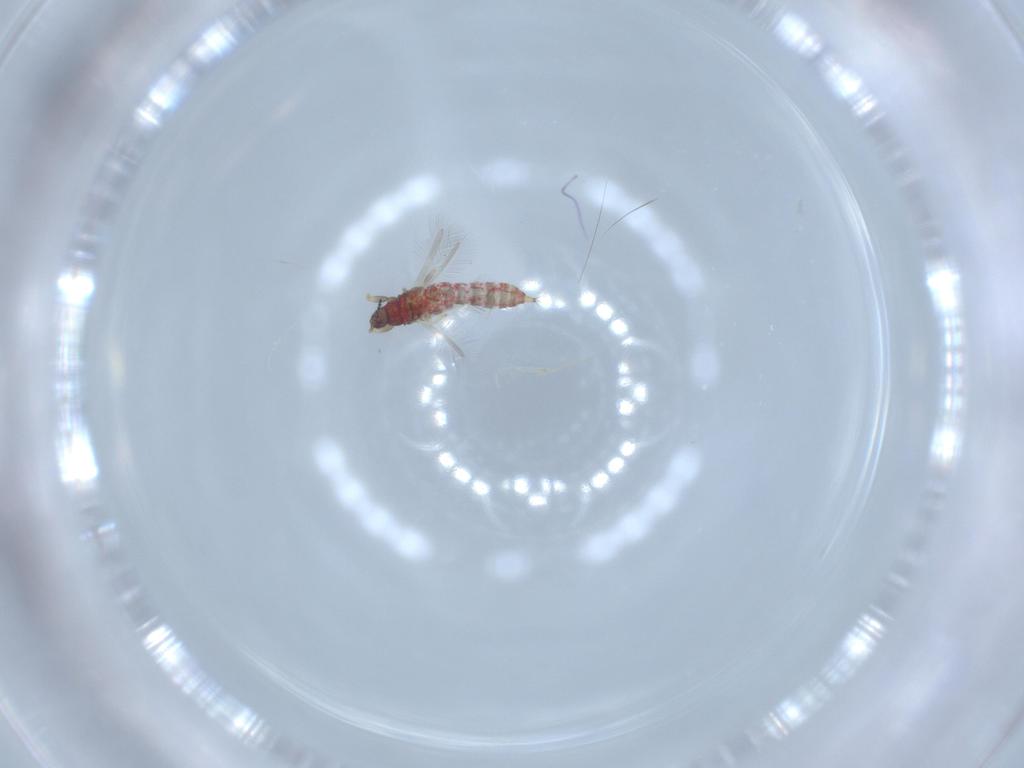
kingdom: Animalia
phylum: Arthropoda
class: Insecta
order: Thysanoptera
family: Phlaeothripidae
